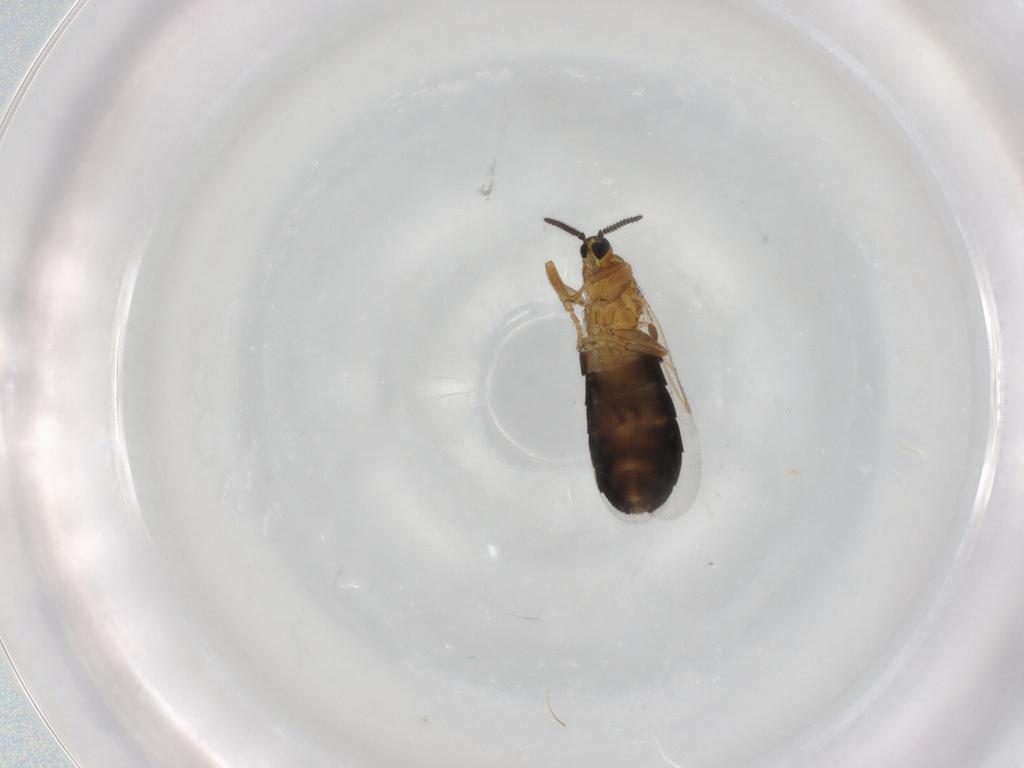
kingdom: Animalia
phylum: Arthropoda
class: Insecta
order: Diptera
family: Scatopsidae
